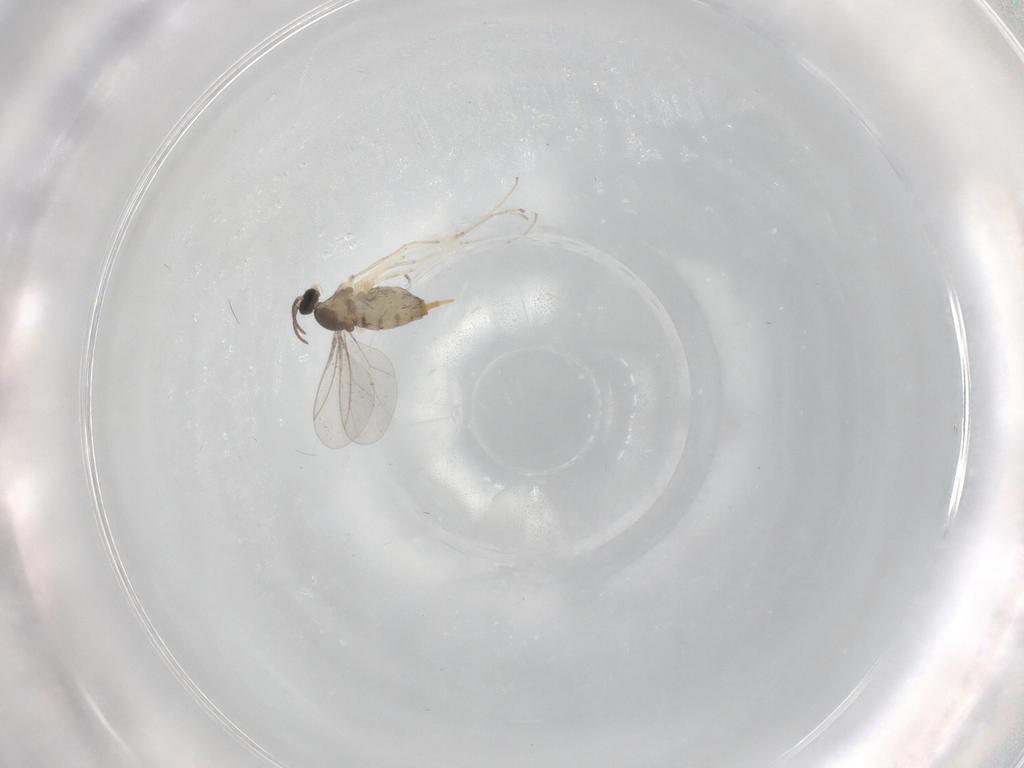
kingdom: Animalia
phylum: Arthropoda
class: Insecta
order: Diptera
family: Cecidomyiidae
